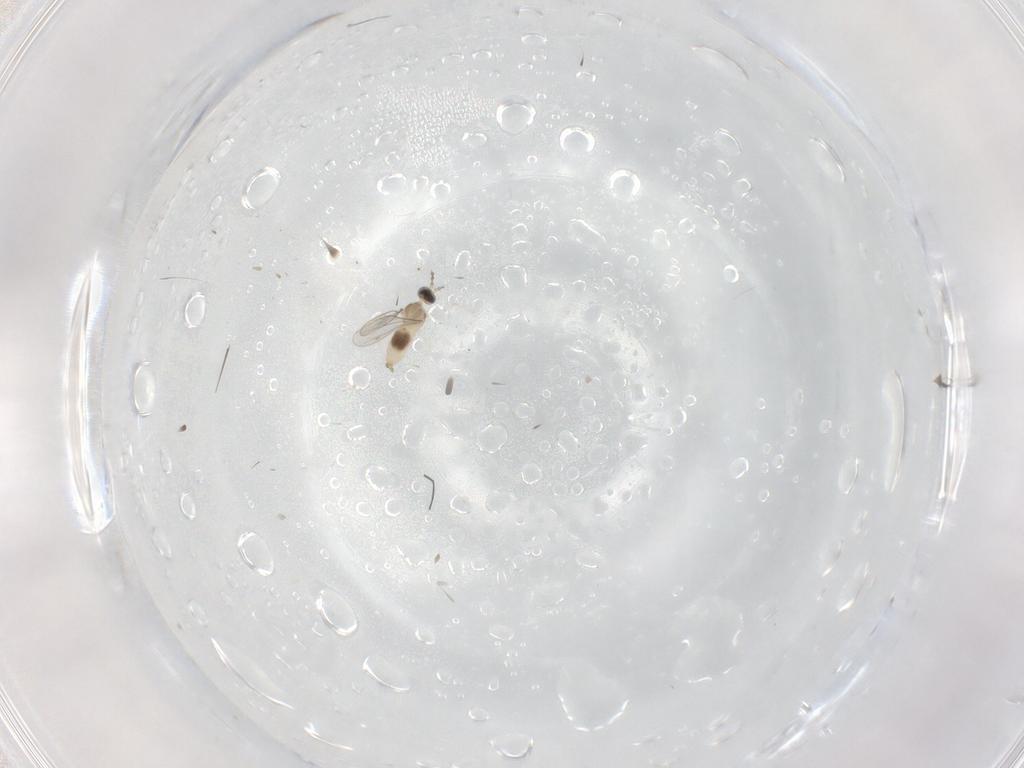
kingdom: Animalia
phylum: Arthropoda
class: Insecta
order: Diptera
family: Cecidomyiidae
